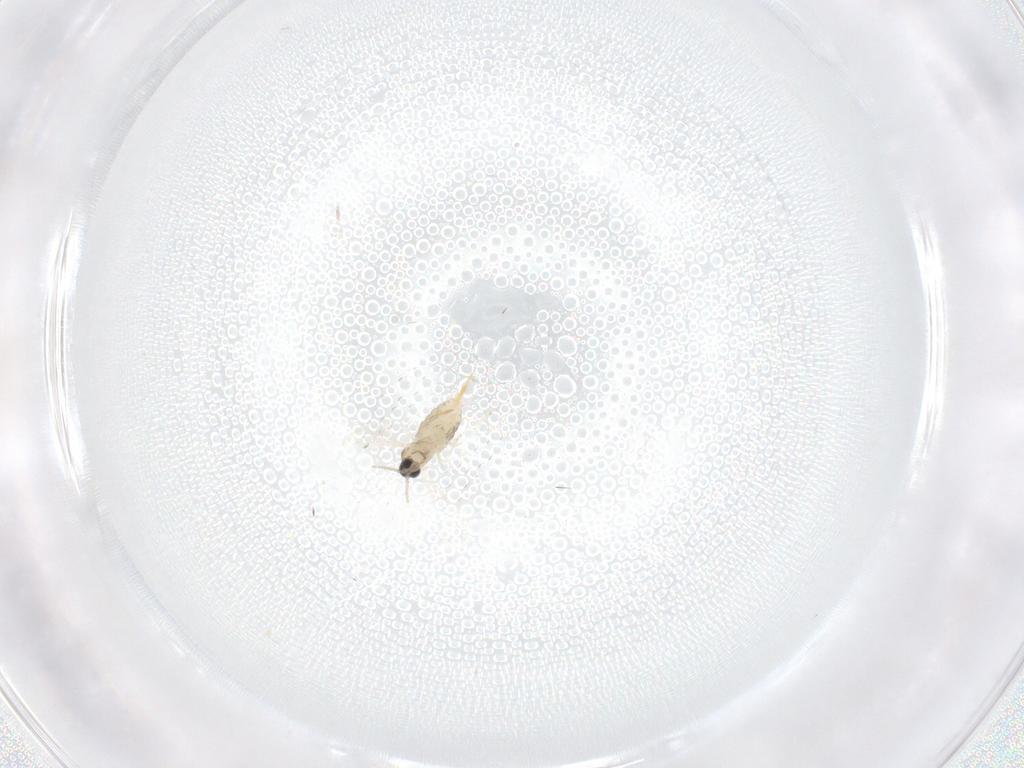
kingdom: Animalia
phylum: Arthropoda
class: Insecta
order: Diptera
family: Cecidomyiidae
